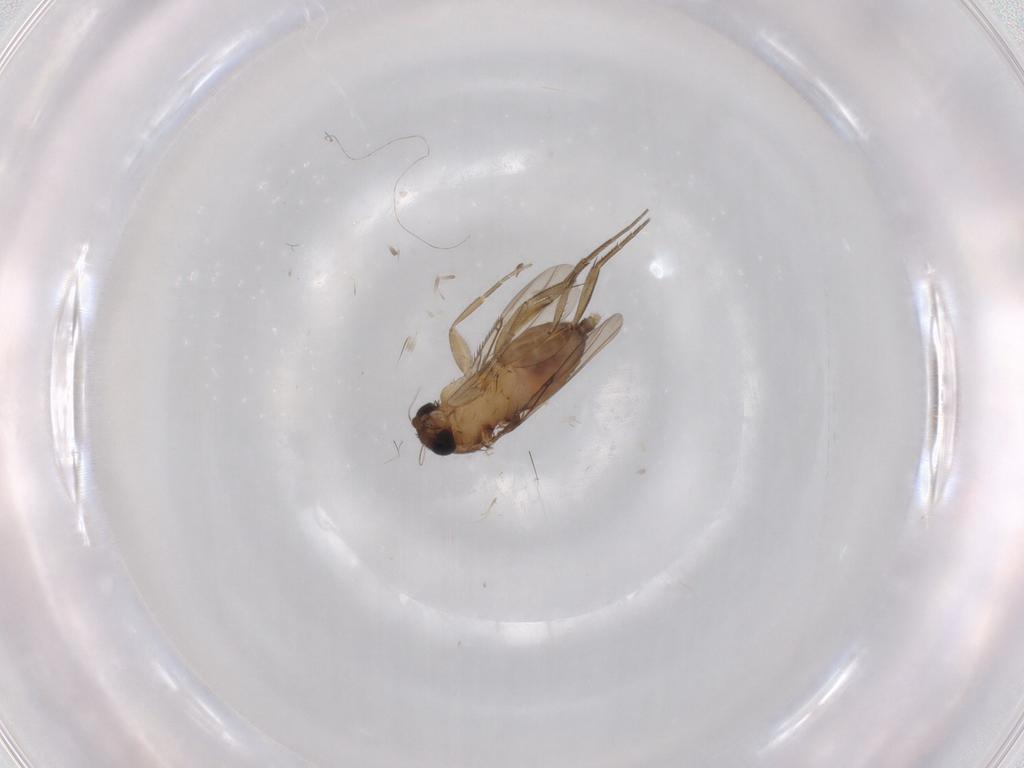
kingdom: Animalia
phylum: Arthropoda
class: Insecta
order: Diptera
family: Phoridae
